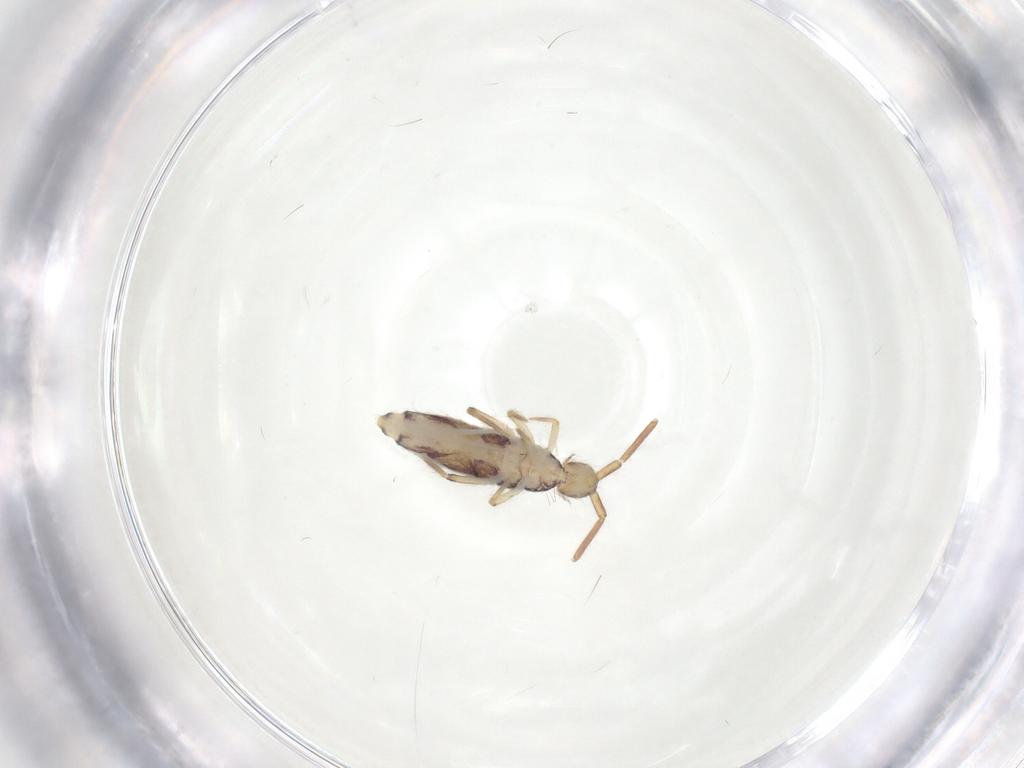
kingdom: Animalia
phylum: Arthropoda
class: Collembola
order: Entomobryomorpha
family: Entomobryidae
